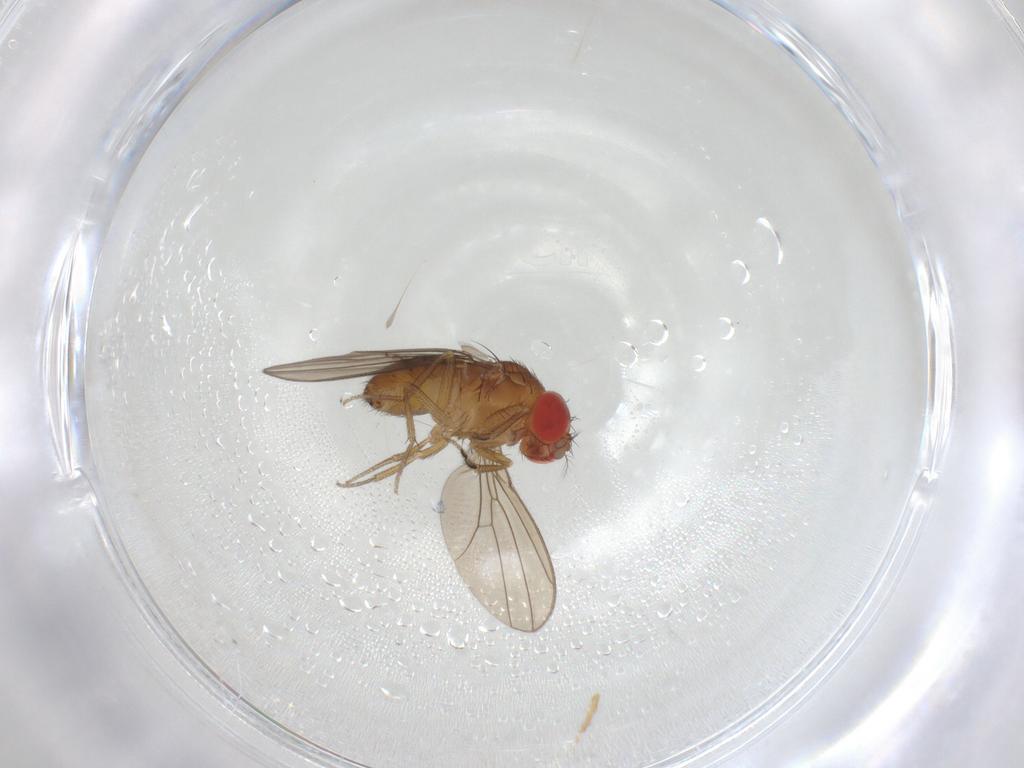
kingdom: Animalia
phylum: Arthropoda
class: Insecta
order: Diptera
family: Drosophilidae
